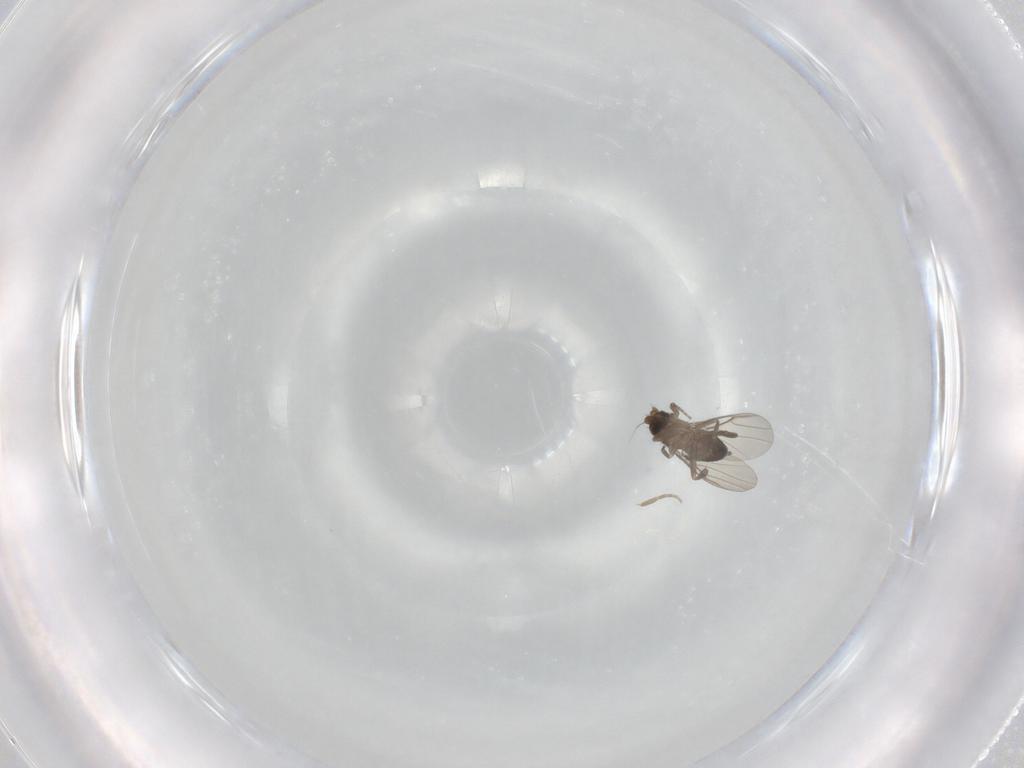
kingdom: Animalia
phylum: Arthropoda
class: Insecta
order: Diptera
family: Phoridae
